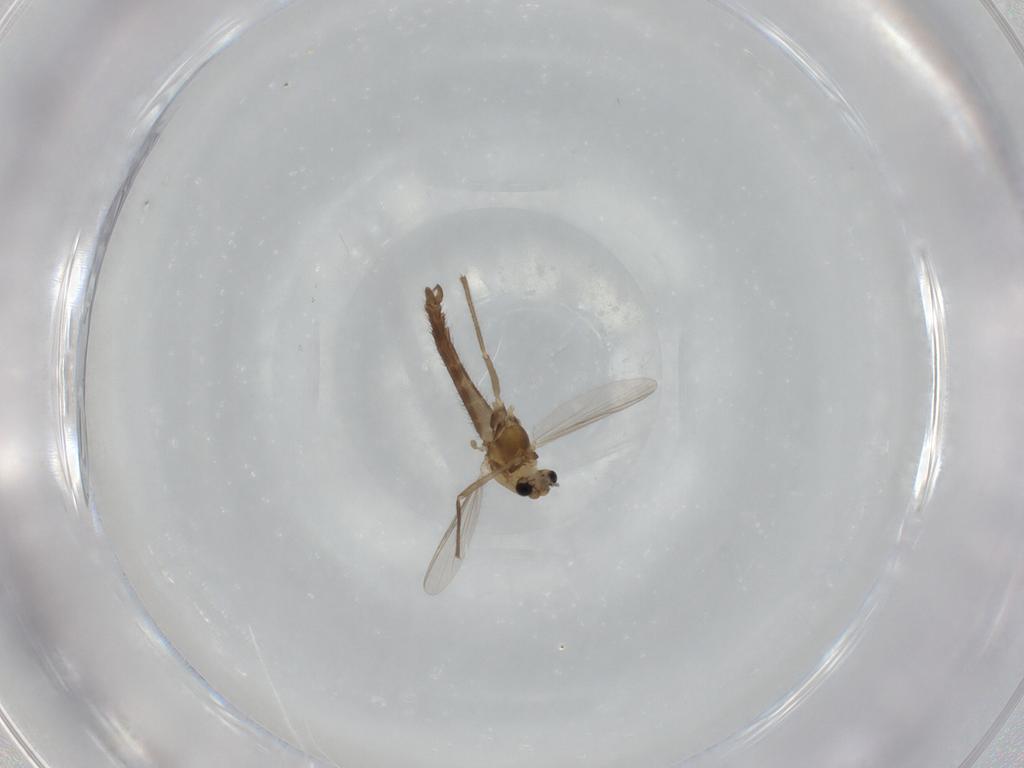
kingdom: Animalia
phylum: Arthropoda
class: Insecta
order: Diptera
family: Chironomidae
